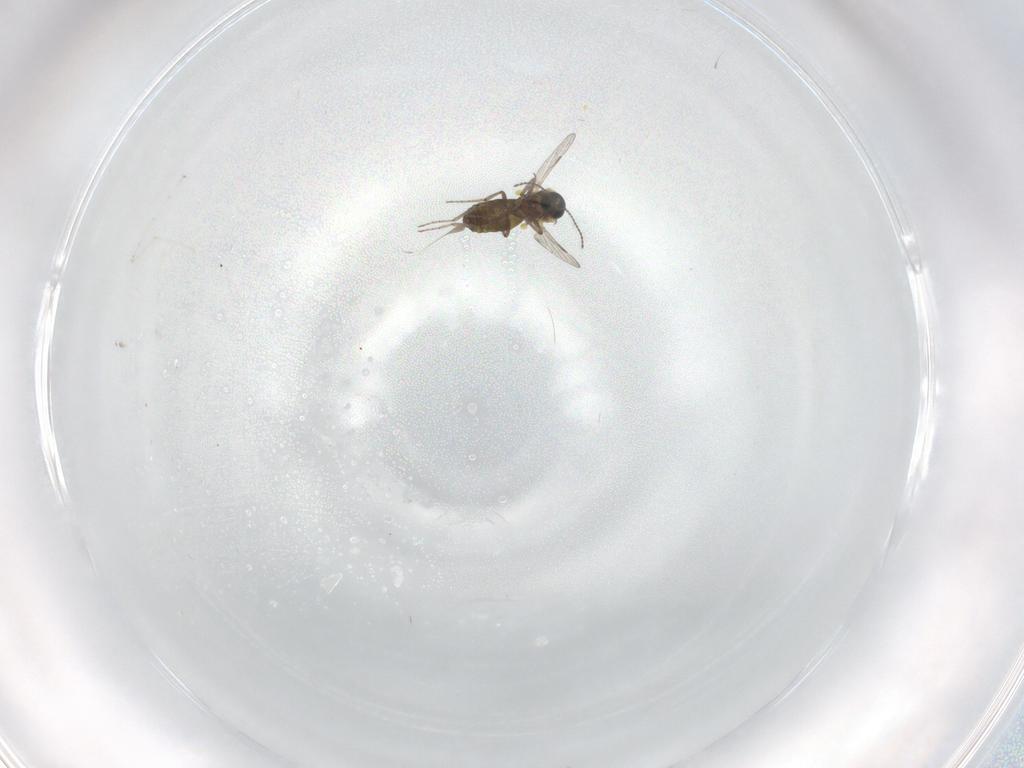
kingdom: Animalia
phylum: Arthropoda
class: Insecta
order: Diptera
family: Ceratopogonidae
